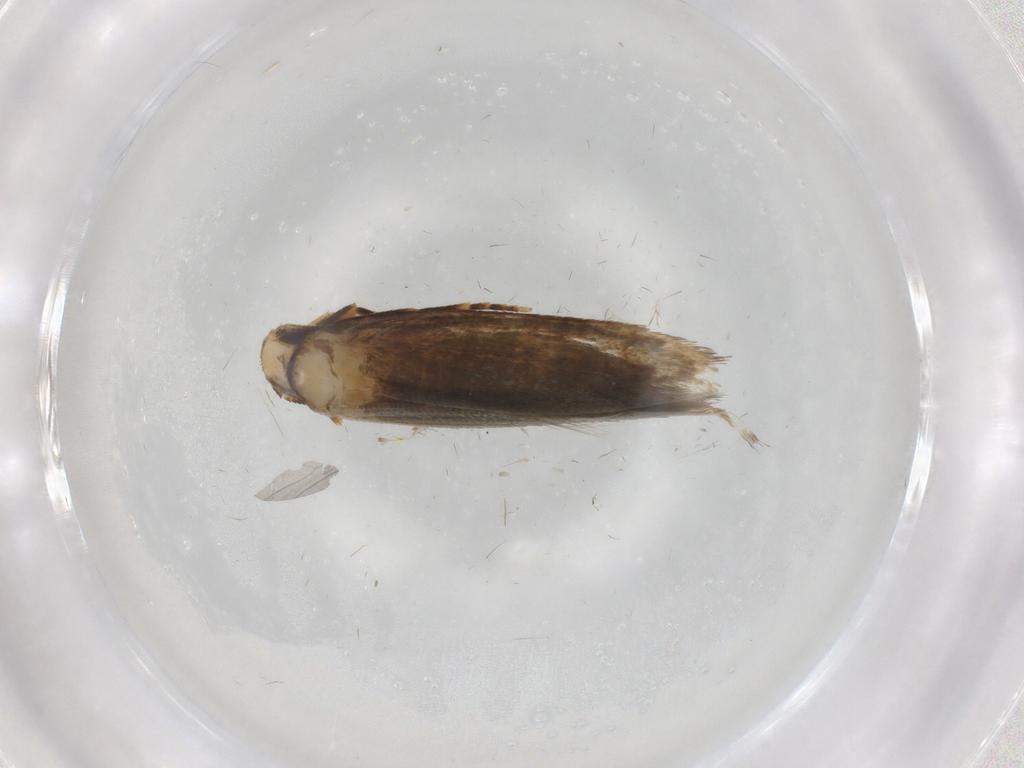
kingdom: Animalia
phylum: Arthropoda
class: Insecta
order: Lepidoptera
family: Tineidae
